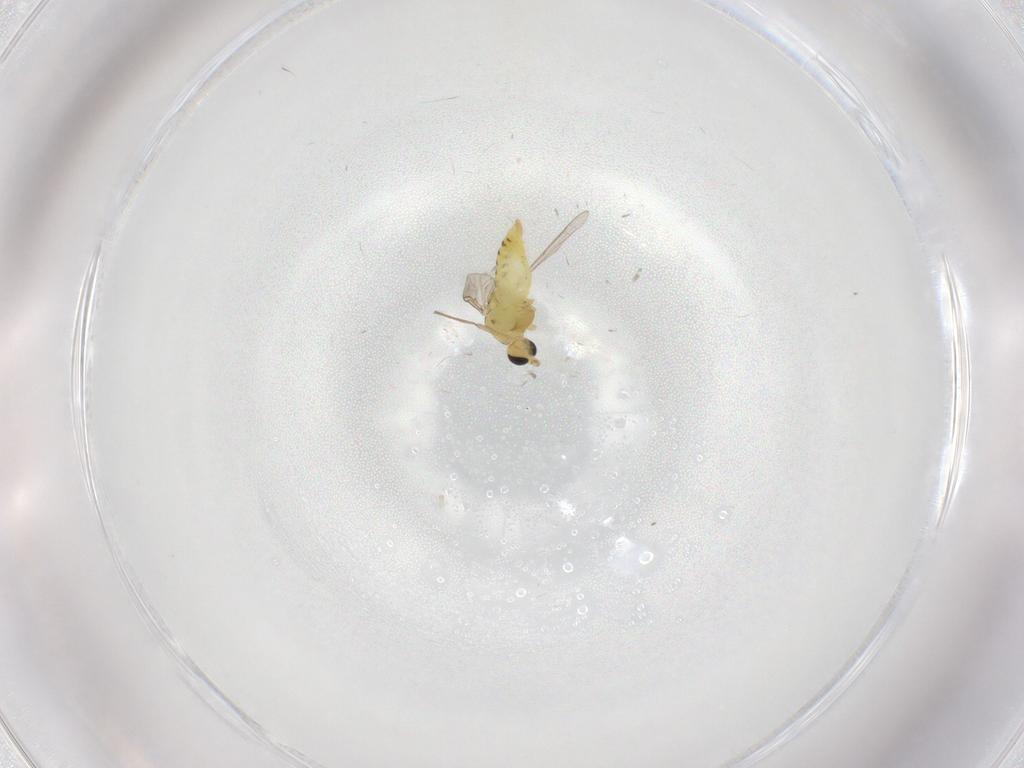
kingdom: Animalia
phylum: Arthropoda
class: Insecta
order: Diptera
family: Chironomidae
